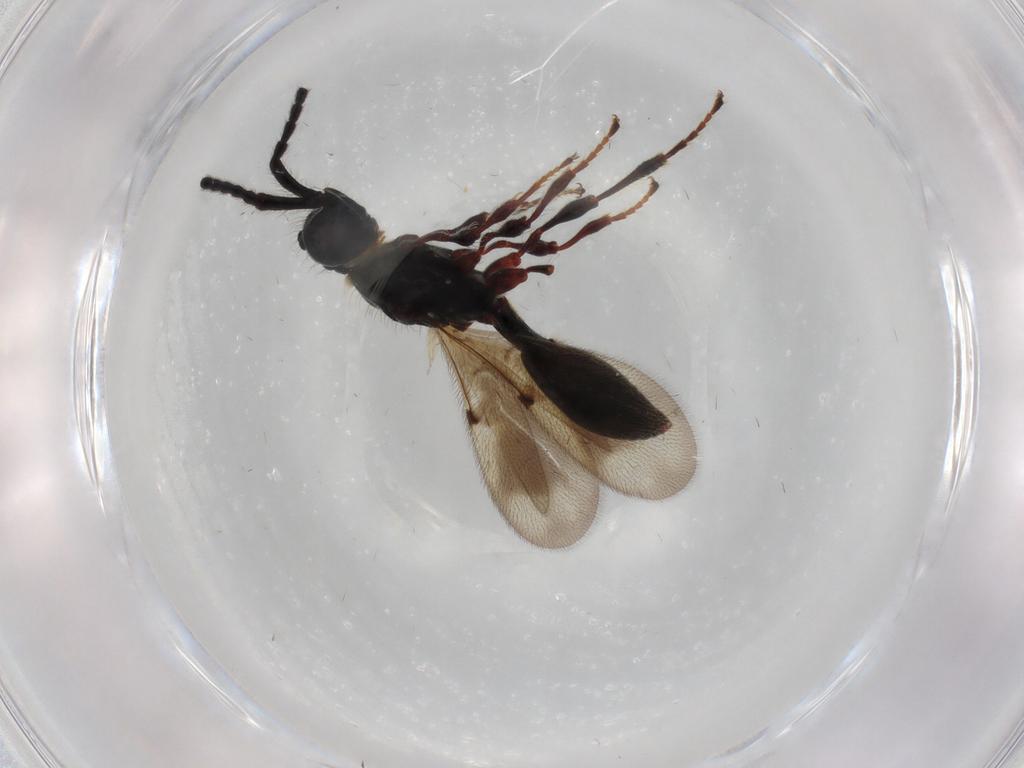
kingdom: Animalia
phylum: Arthropoda
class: Insecta
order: Hymenoptera
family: Diapriidae
